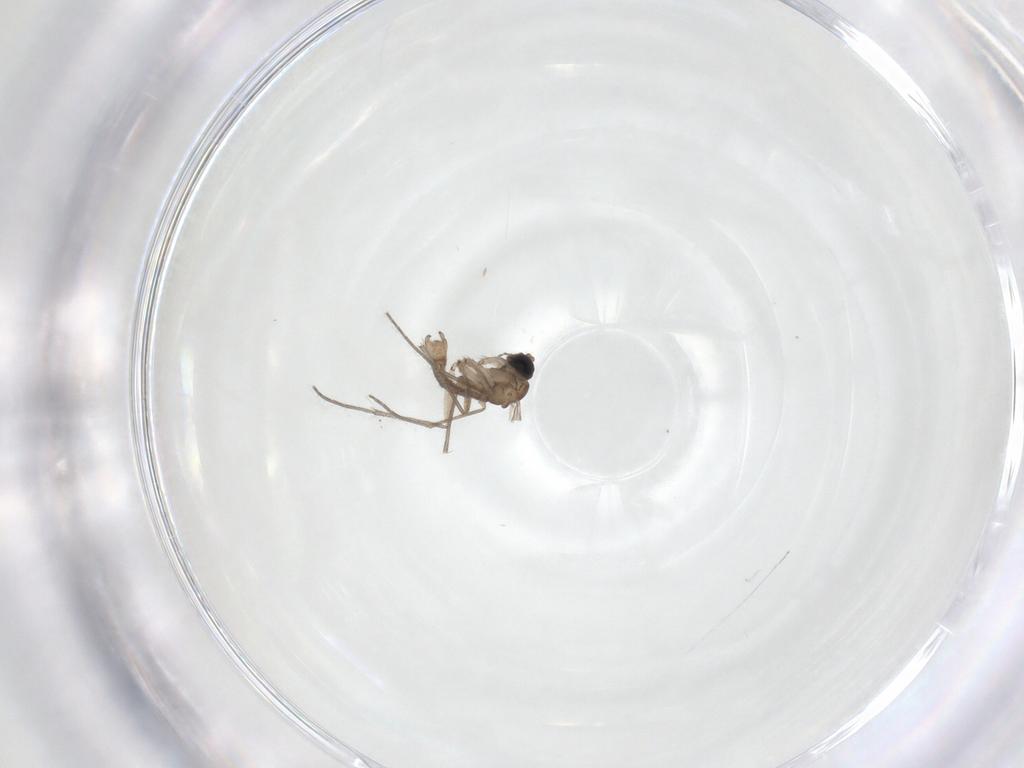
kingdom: Animalia
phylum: Arthropoda
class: Insecta
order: Diptera
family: Sciaridae
